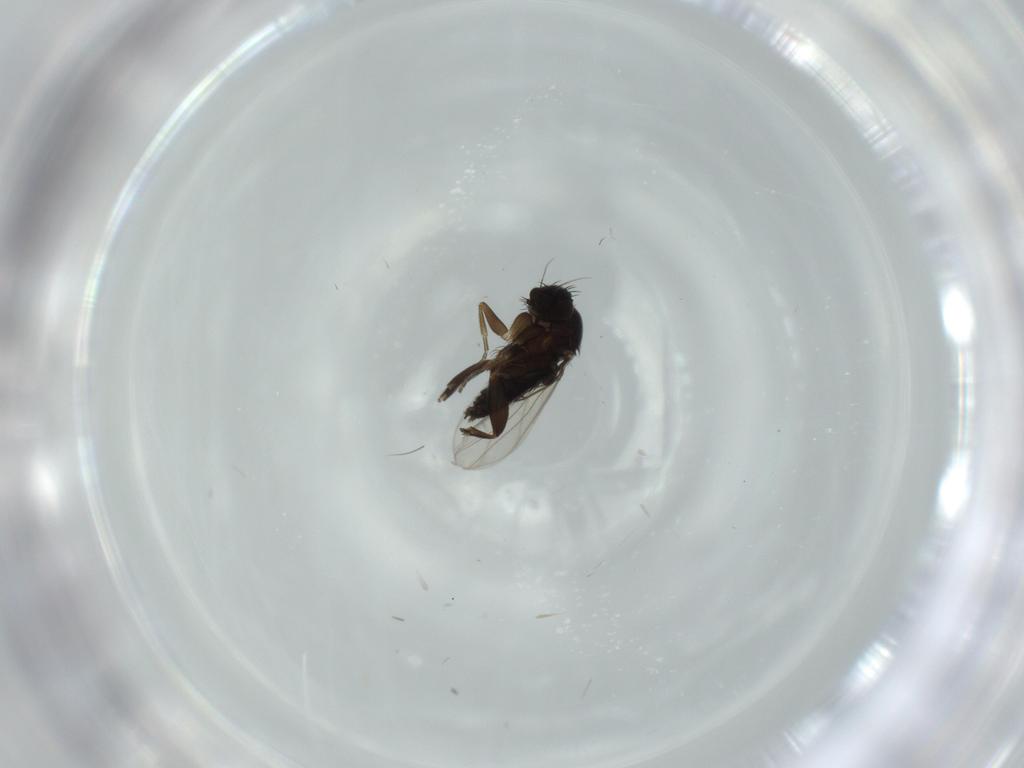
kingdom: Animalia
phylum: Arthropoda
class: Insecta
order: Diptera
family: Phoridae
